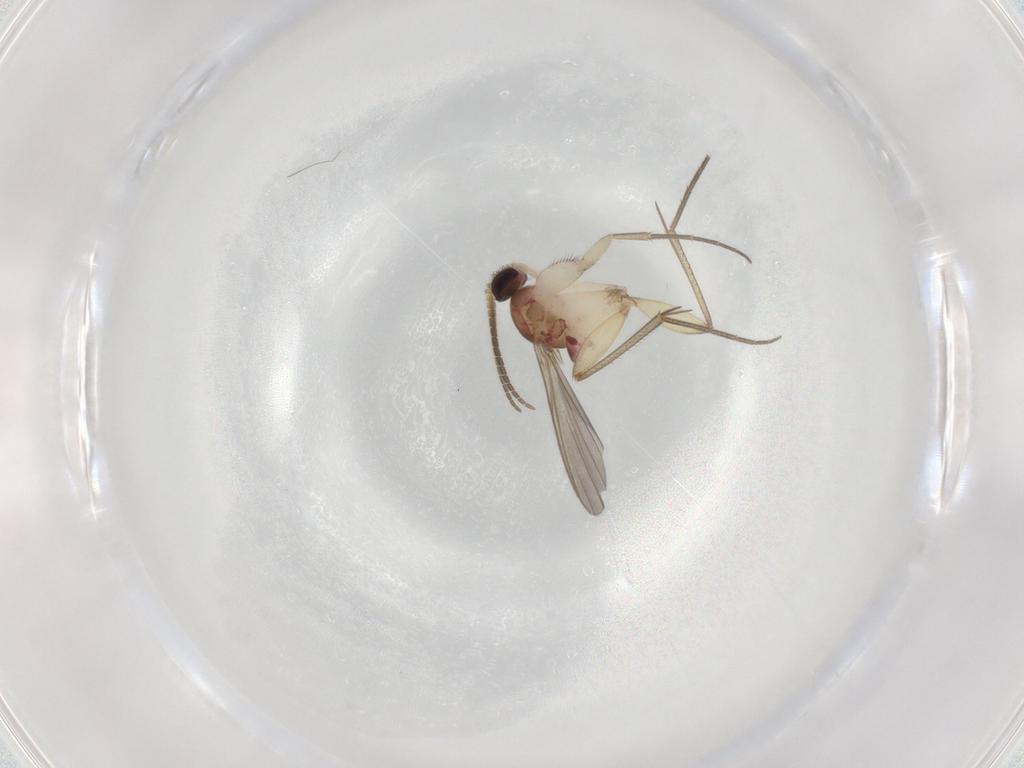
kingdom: Animalia
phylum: Arthropoda
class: Insecta
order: Diptera
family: Mycetophilidae
